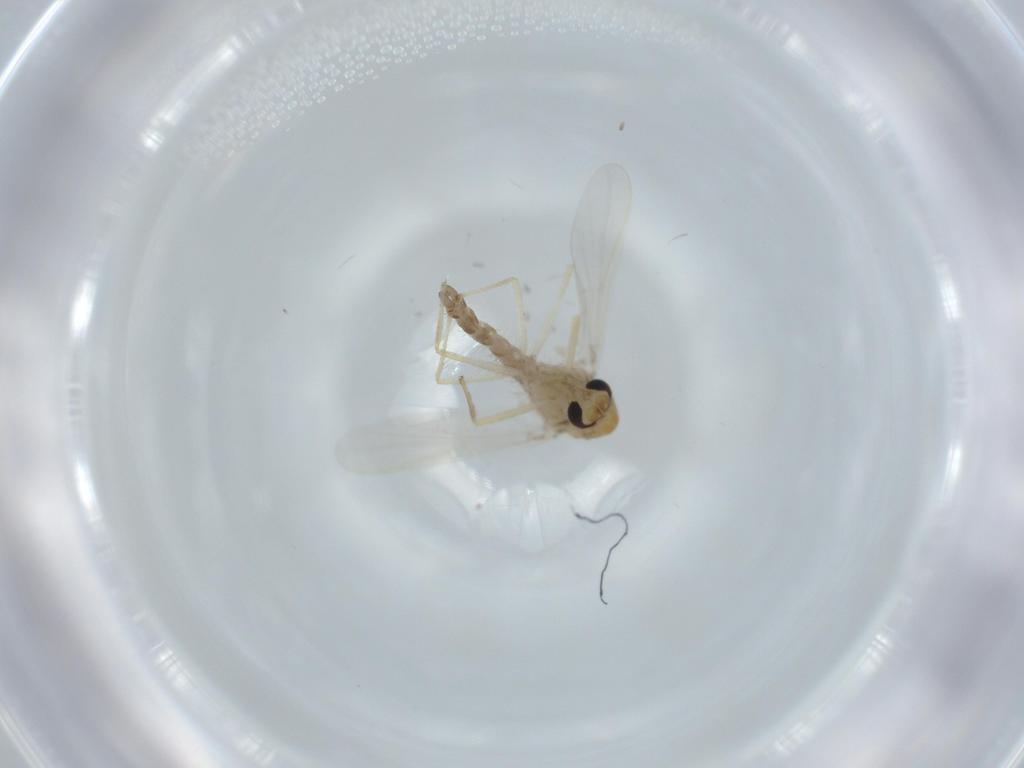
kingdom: Animalia
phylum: Arthropoda
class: Insecta
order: Diptera
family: Chironomidae
